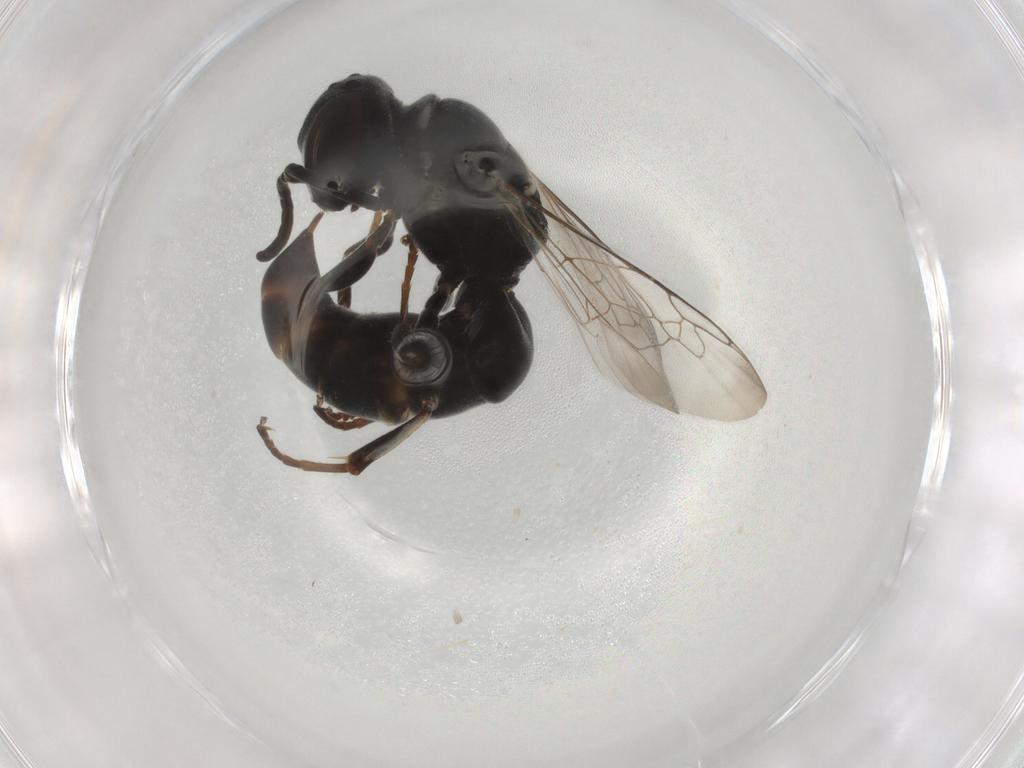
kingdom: Animalia
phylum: Arthropoda
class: Insecta
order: Hymenoptera
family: Crabronidae
